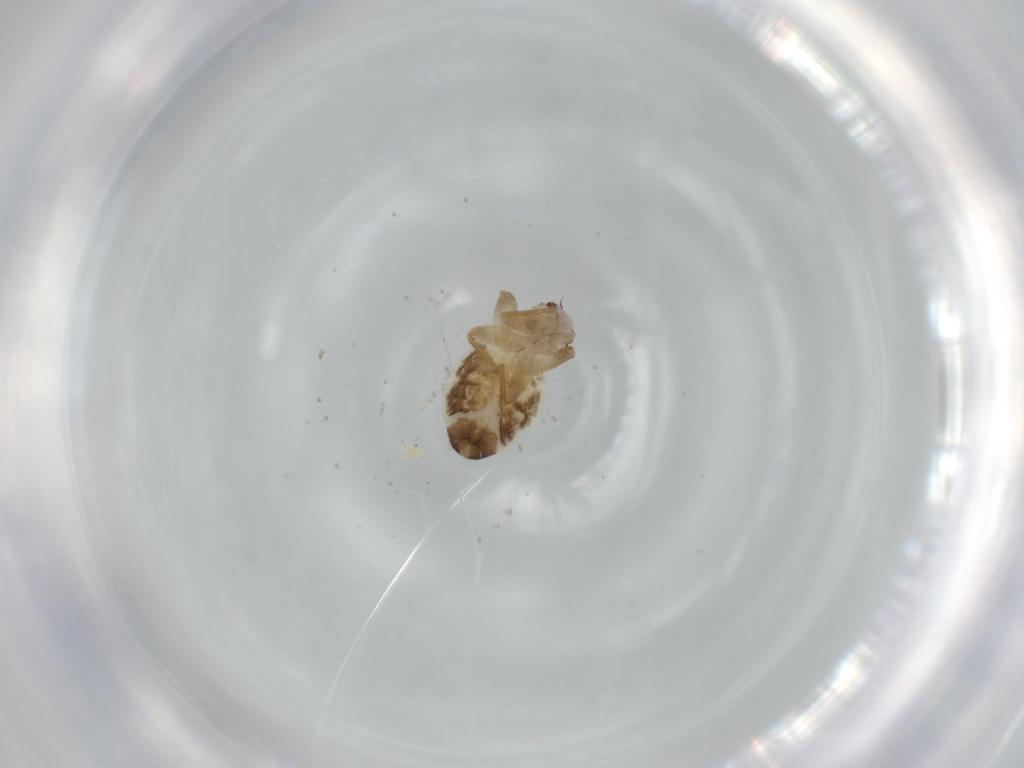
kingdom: Animalia
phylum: Arthropoda
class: Insecta
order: Psocodea
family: Lepidopsocidae
